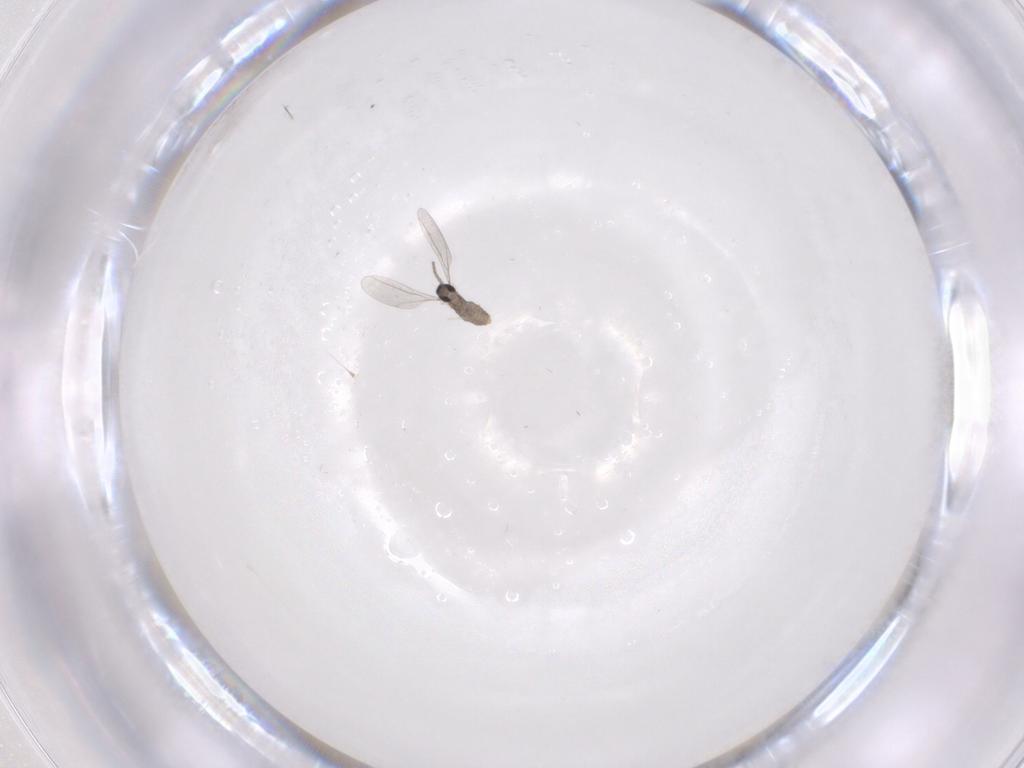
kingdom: Animalia
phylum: Arthropoda
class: Insecta
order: Diptera
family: Cecidomyiidae
